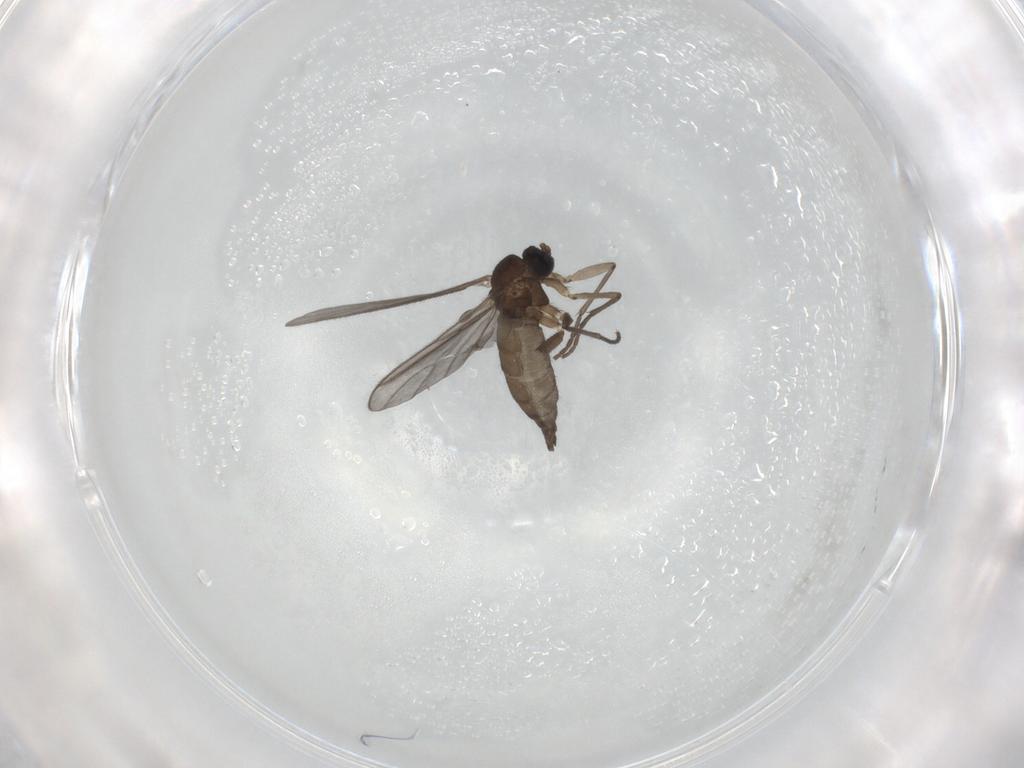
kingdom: Animalia
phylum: Arthropoda
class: Insecta
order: Diptera
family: Sciaridae
